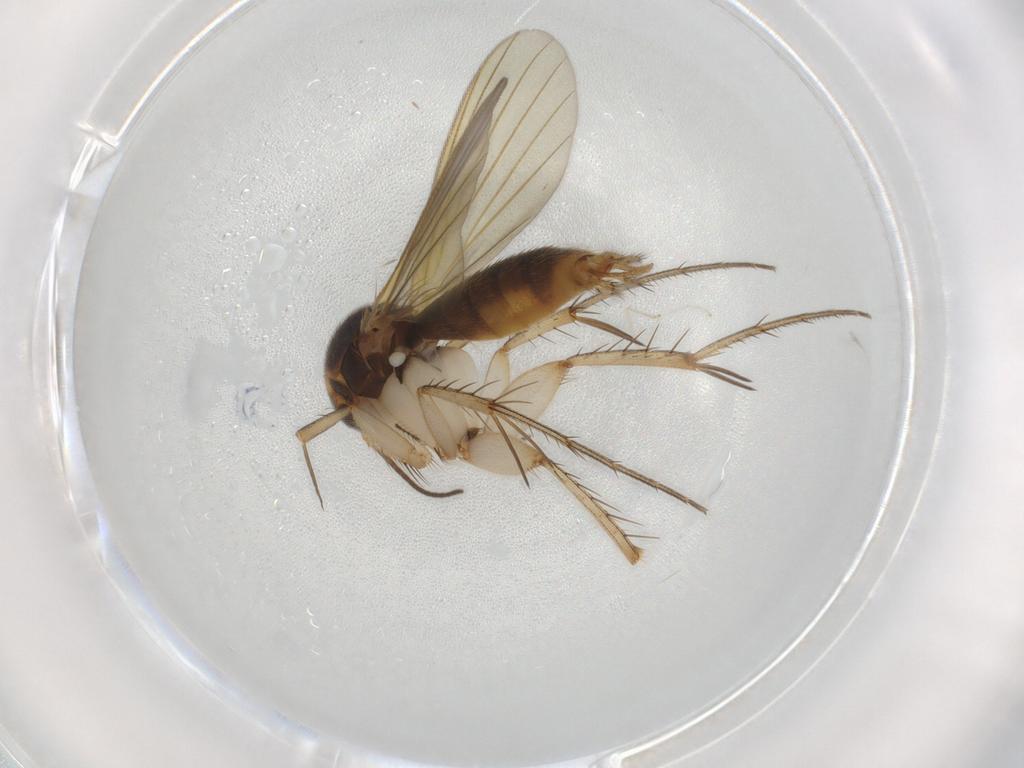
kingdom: Animalia
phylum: Arthropoda
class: Insecta
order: Diptera
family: Mycetophilidae
